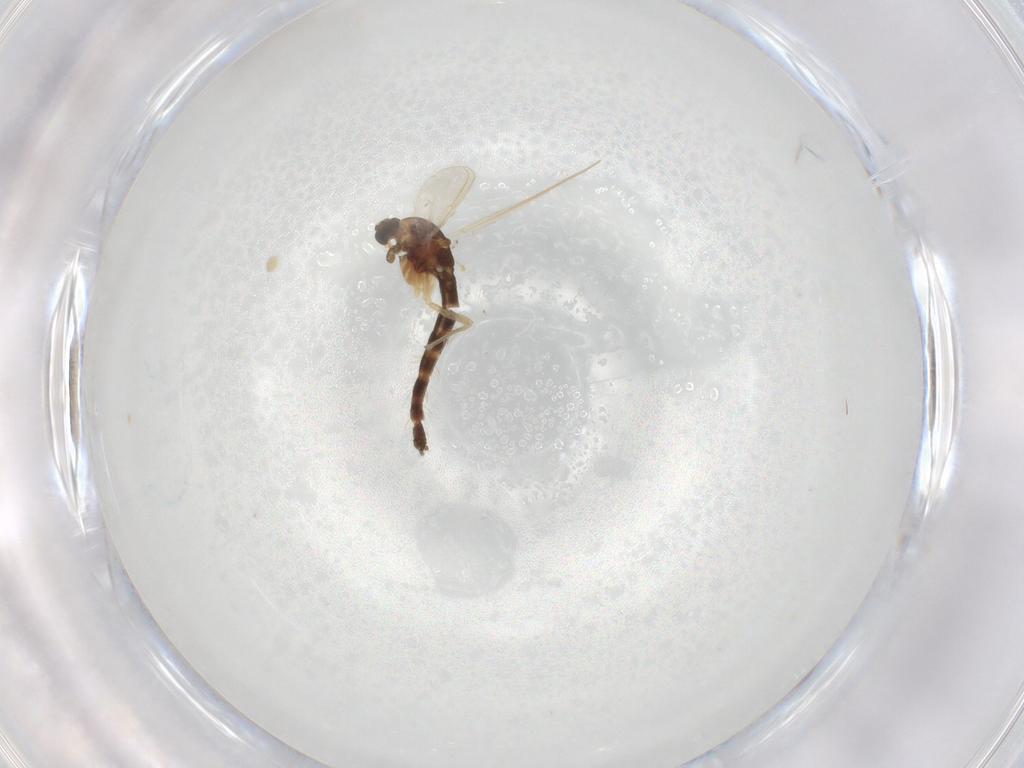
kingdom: Animalia
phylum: Arthropoda
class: Insecta
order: Diptera
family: Chironomidae
